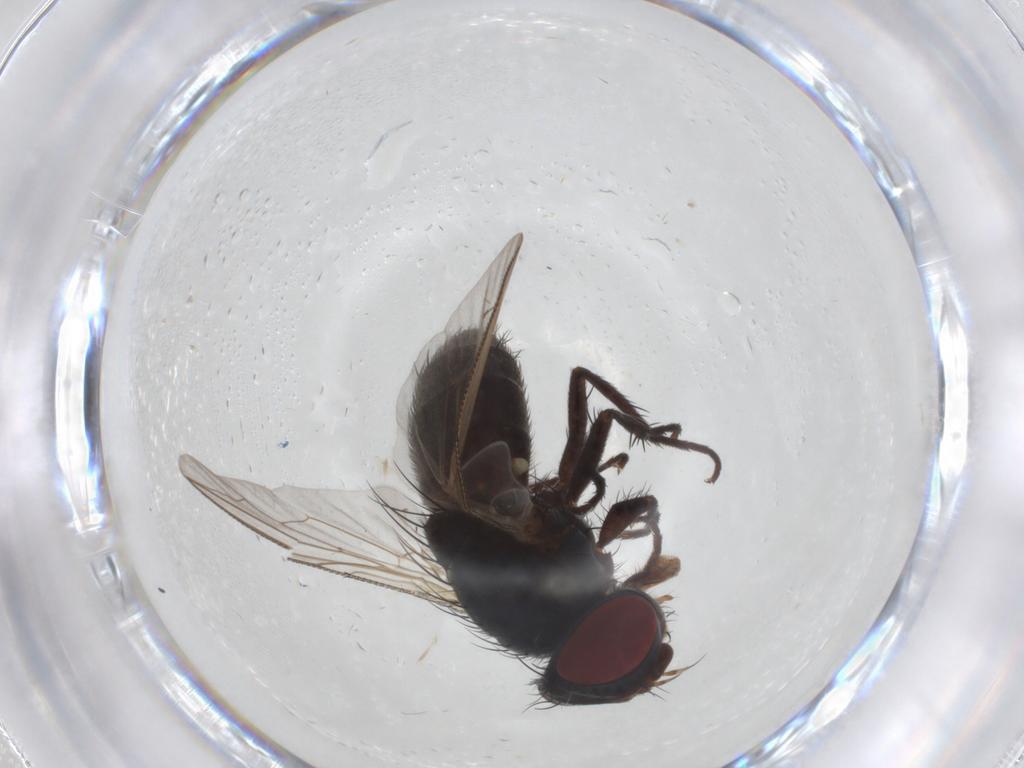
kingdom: Animalia
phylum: Arthropoda
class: Insecta
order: Diptera
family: Sarcophagidae
